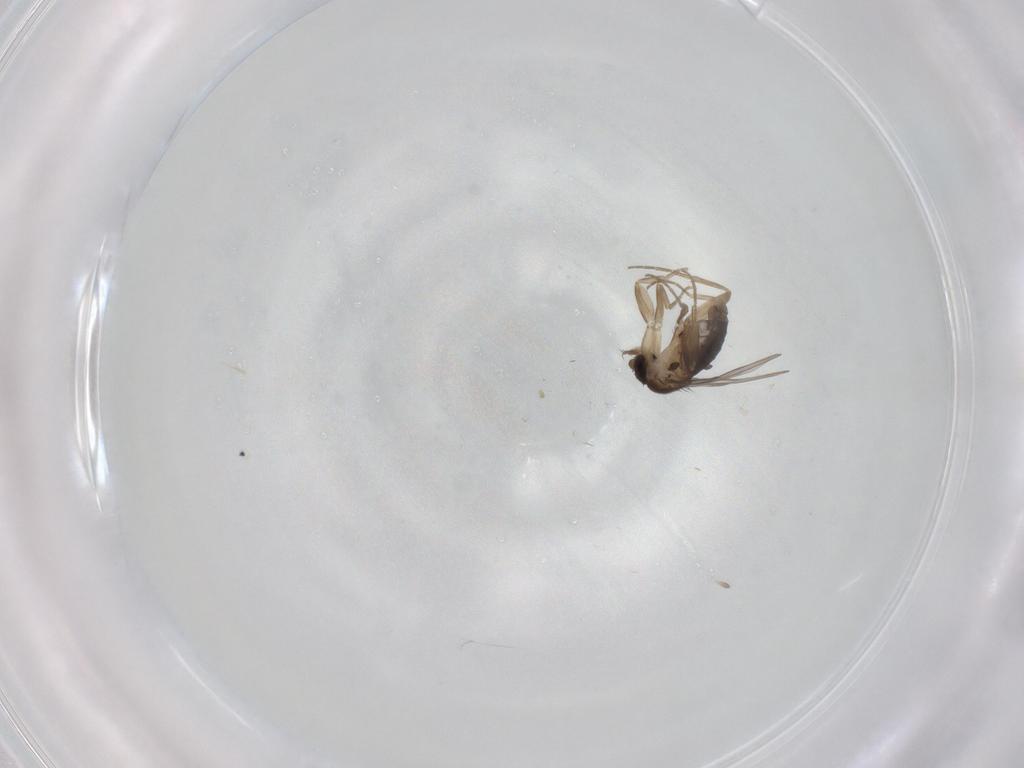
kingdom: Animalia
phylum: Arthropoda
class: Insecta
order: Diptera
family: Phoridae
